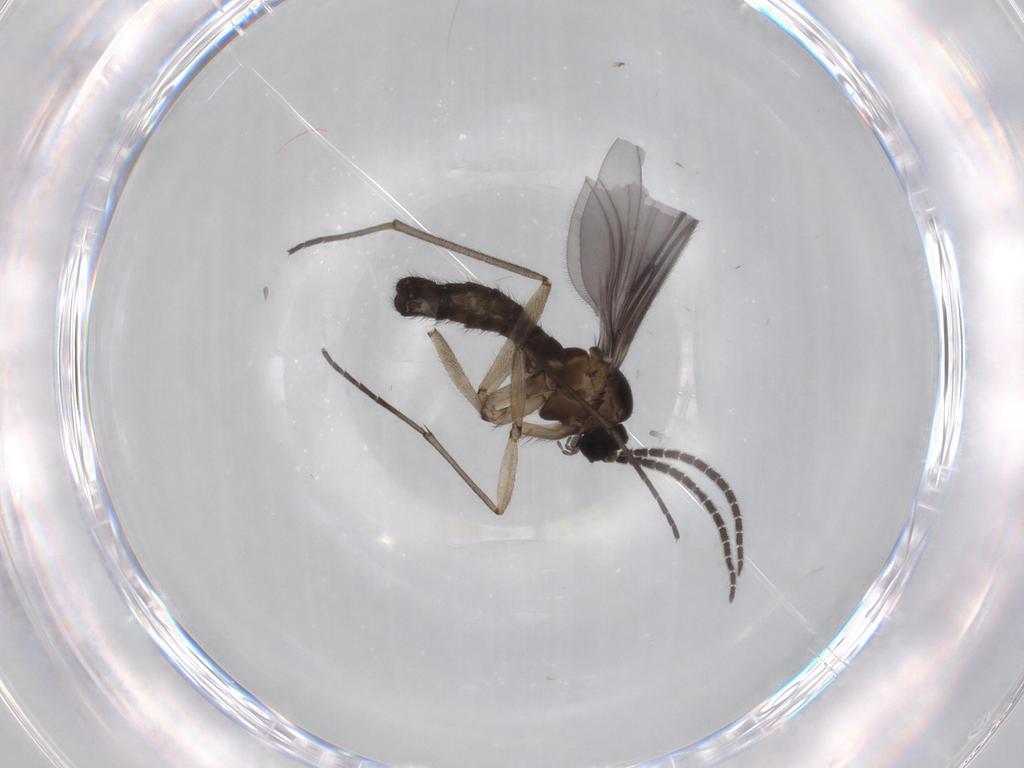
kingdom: Animalia
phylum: Arthropoda
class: Insecta
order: Diptera
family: Sciaridae
